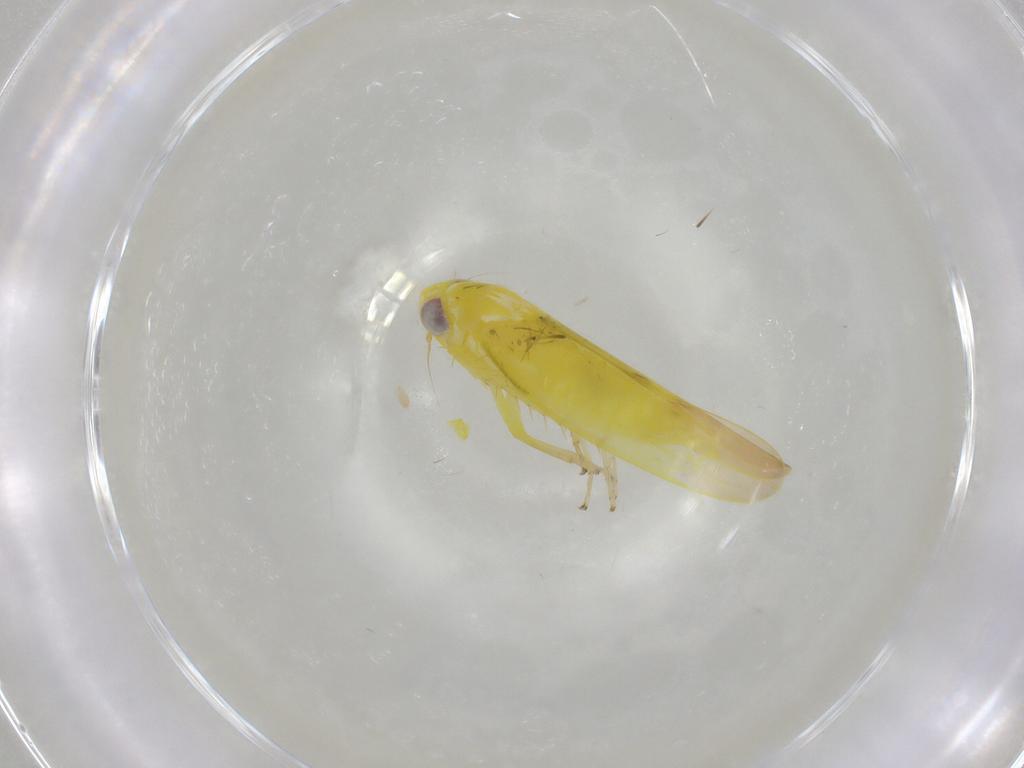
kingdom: Animalia
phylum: Arthropoda
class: Insecta
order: Hemiptera
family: Cicadellidae
